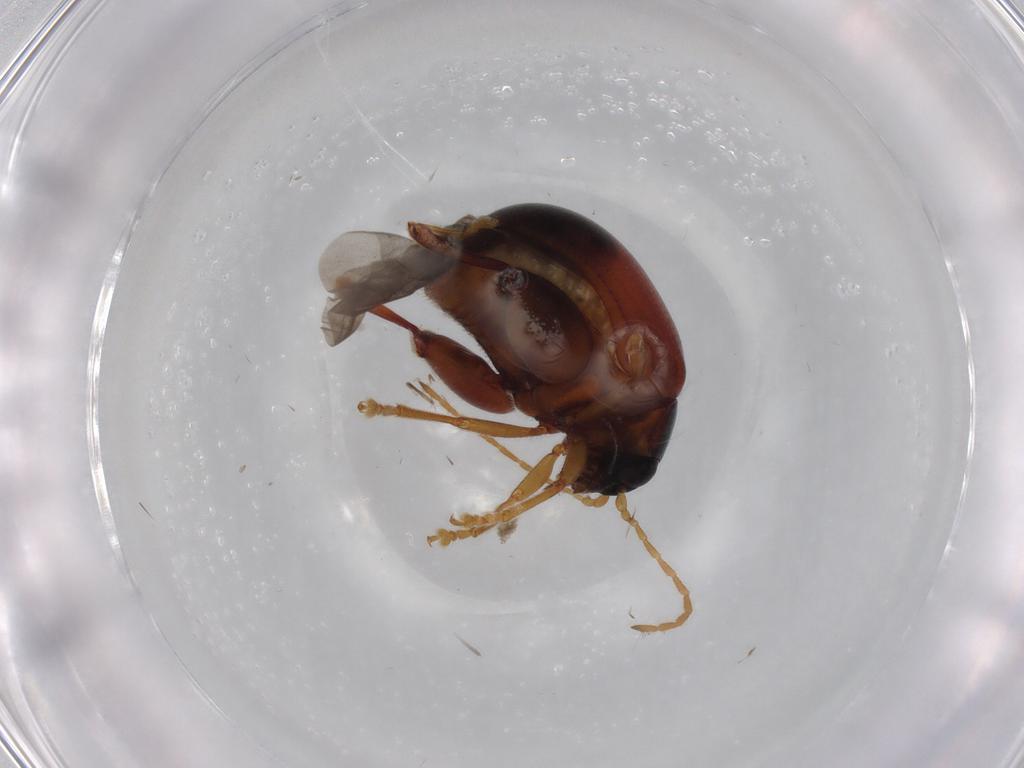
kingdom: Animalia
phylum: Arthropoda
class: Insecta
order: Coleoptera
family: Chrysomelidae
